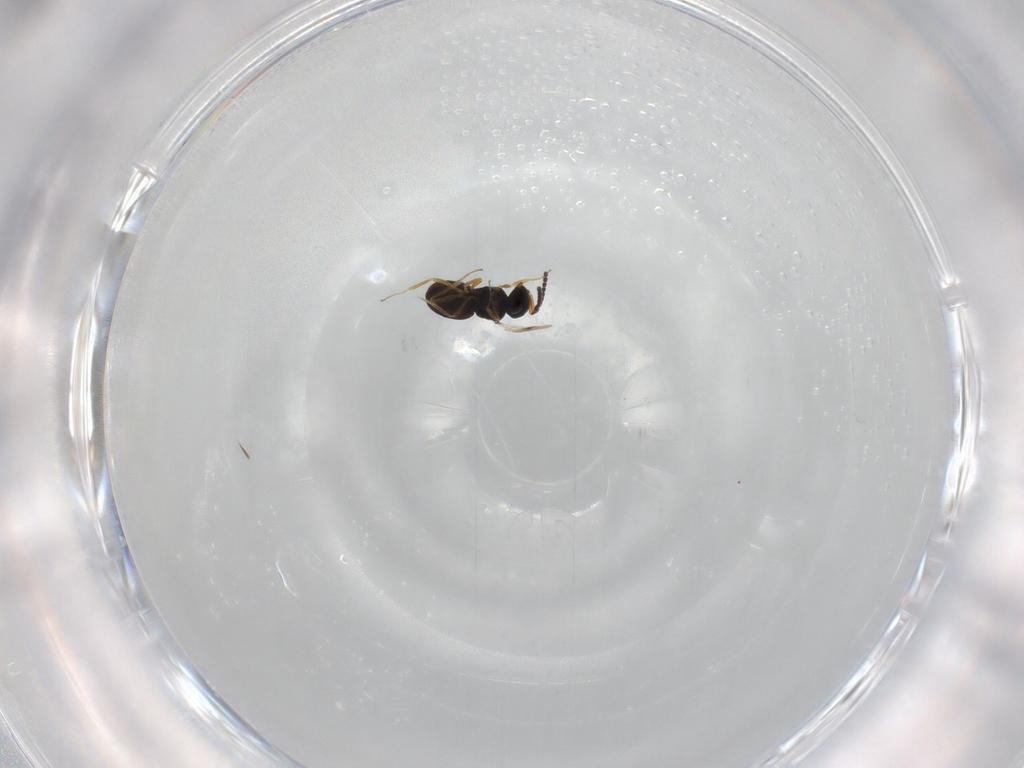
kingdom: Animalia
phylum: Arthropoda
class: Insecta
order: Hymenoptera
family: Scelionidae
